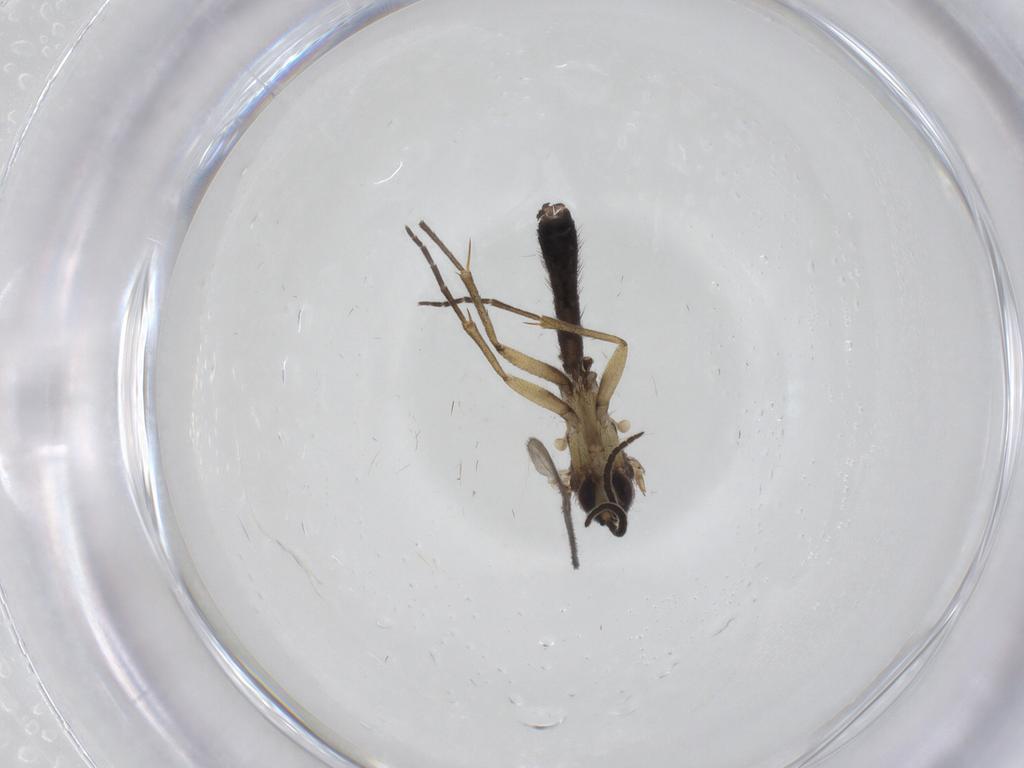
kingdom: Animalia
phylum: Arthropoda
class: Insecta
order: Diptera
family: Mycetophilidae
